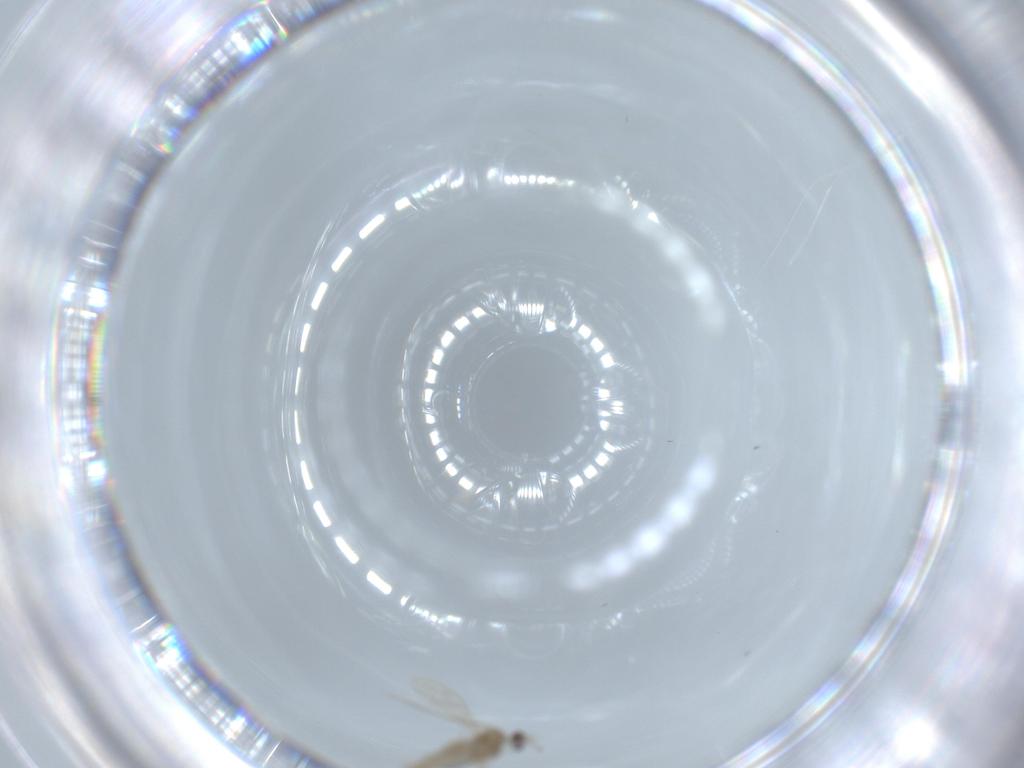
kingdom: Animalia
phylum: Arthropoda
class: Insecta
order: Diptera
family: Cecidomyiidae
